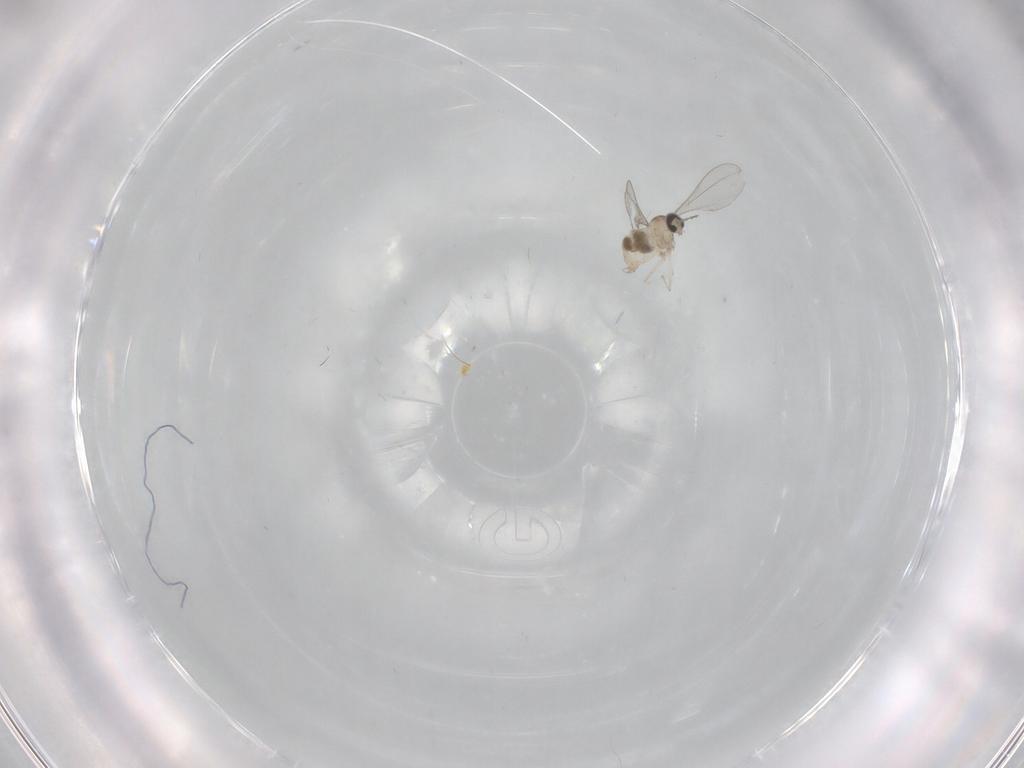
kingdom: Animalia
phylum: Arthropoda
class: Insecta
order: Diptera
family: Cecidomyiidae
